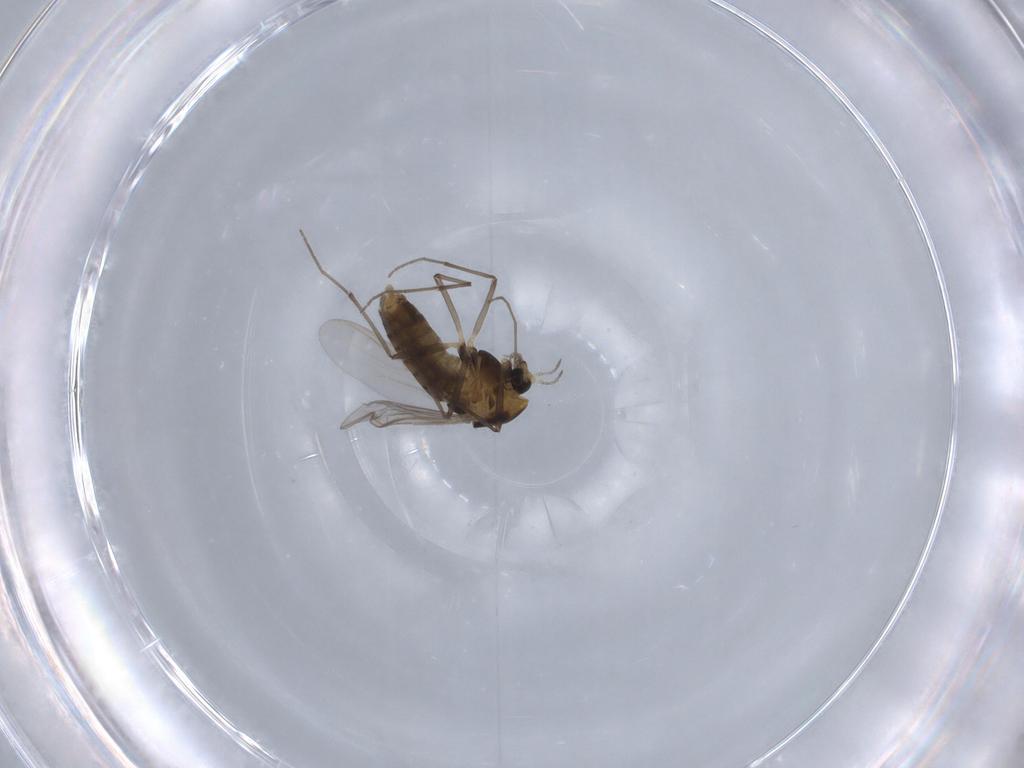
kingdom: Animalia
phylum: Arthropoda
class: Insecta
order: Diptera
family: Chironomidae
